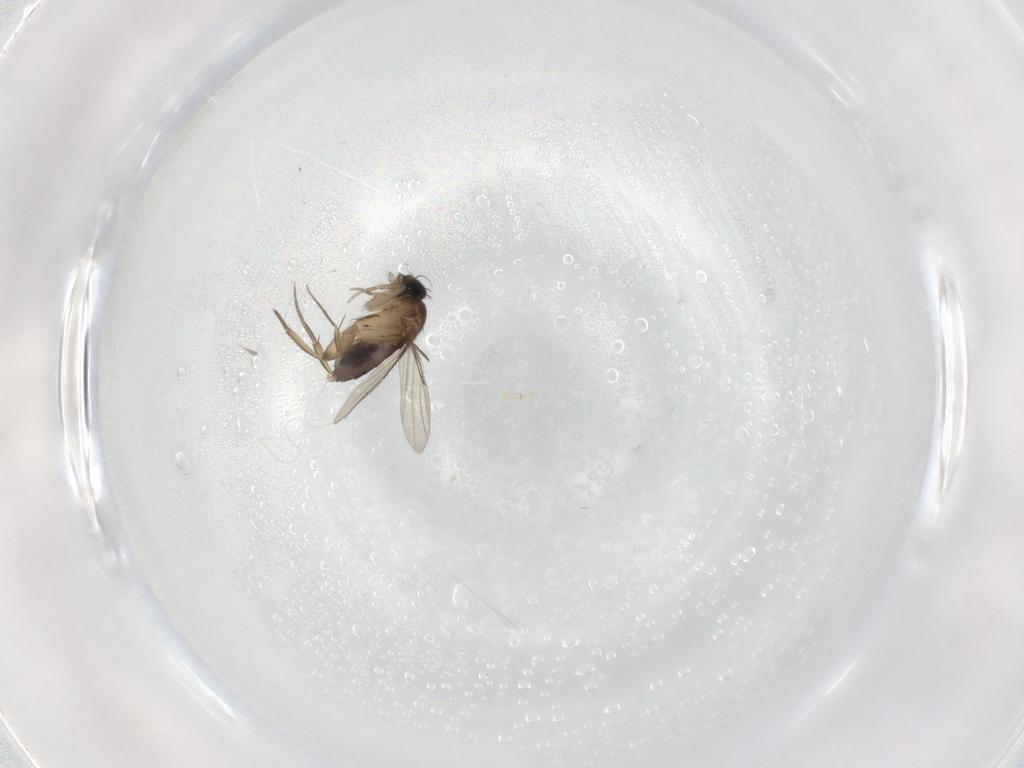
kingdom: Animalia
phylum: Arthropoda
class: Insecta
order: Diptera
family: Phoridae
